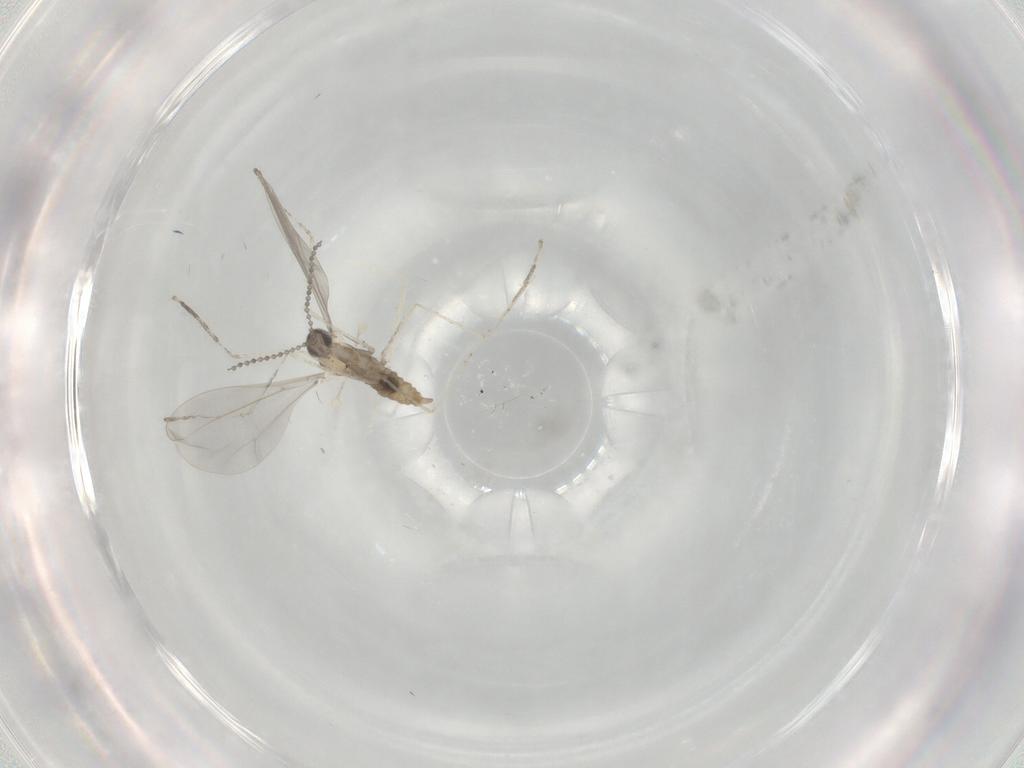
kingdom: Animalia
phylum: Arthropoda
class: Insecta
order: Diptera
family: Cecidomyiidae
